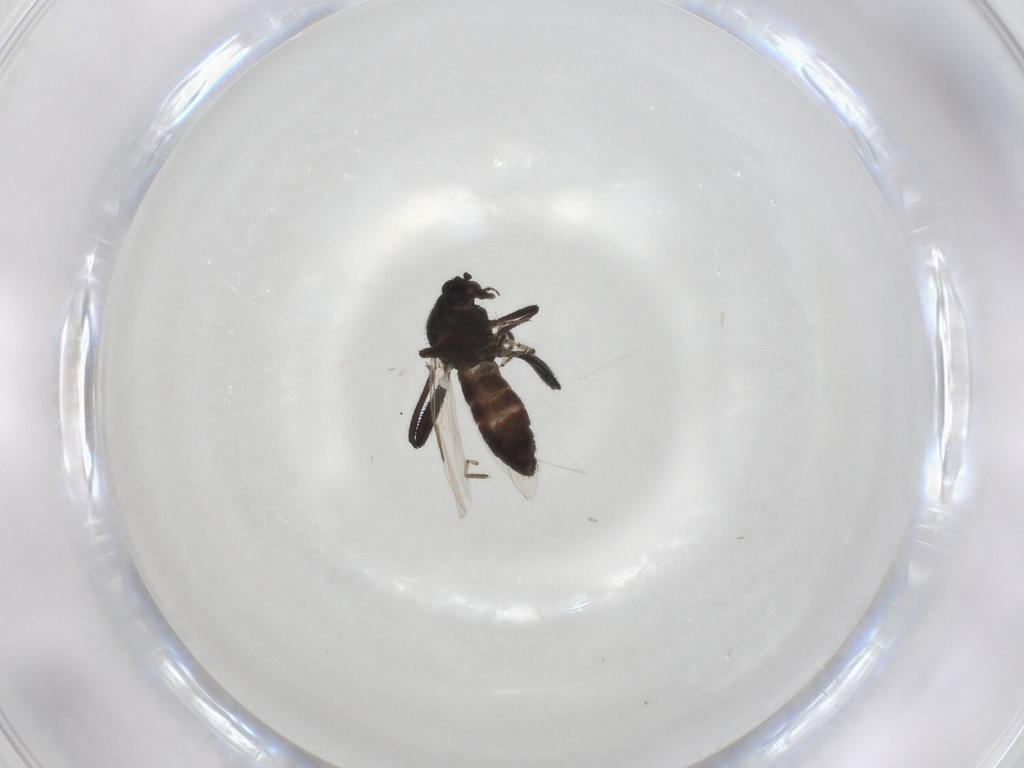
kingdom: Animalia
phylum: Arthropoda
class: Insecta
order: Diptera
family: Ceratopogonidae
